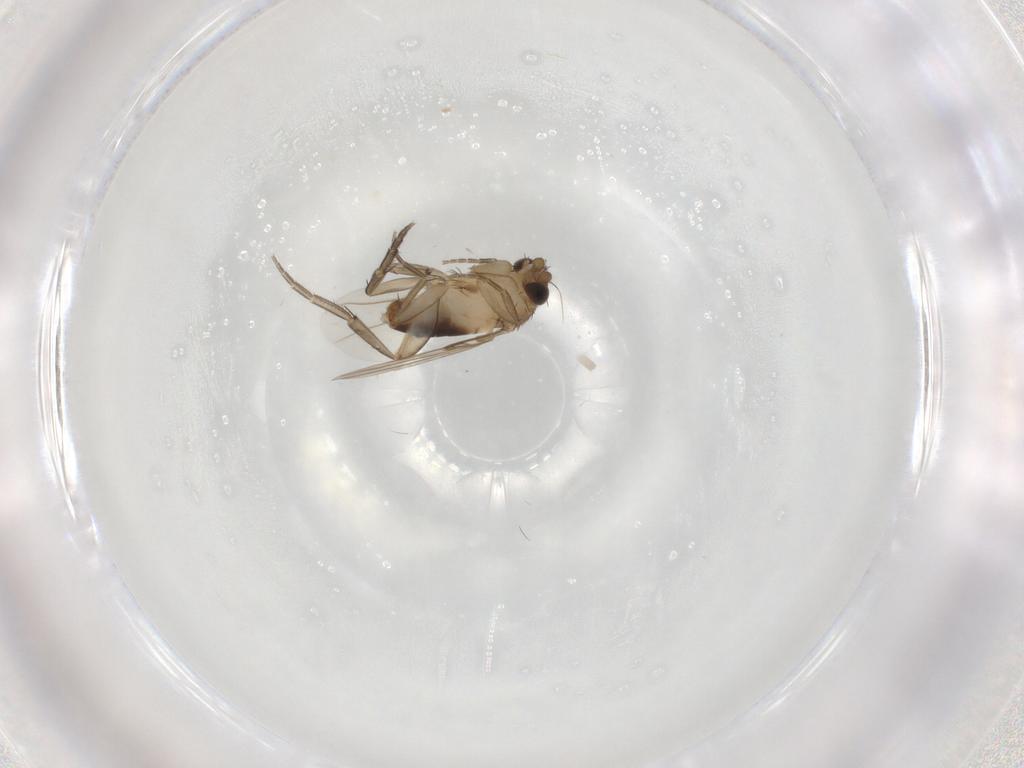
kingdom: Animalia
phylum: Arthropoda
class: Insecta
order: Diptera
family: Phoridae
